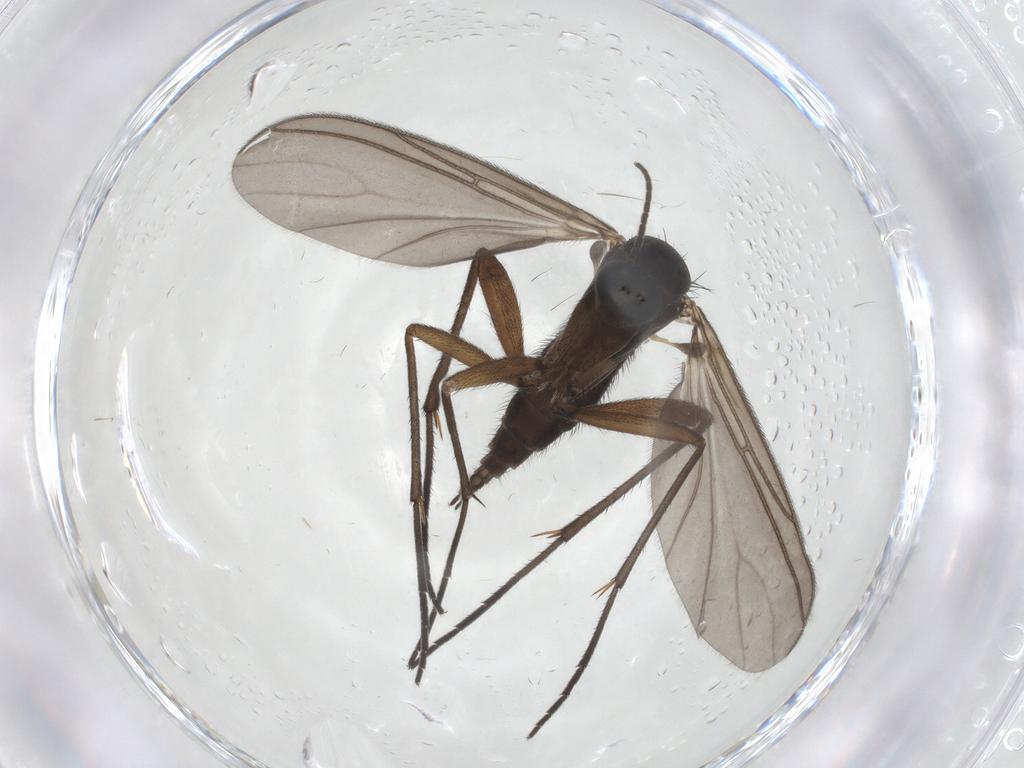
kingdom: Animalia
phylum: Arthropoda
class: Insecta
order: Diptera
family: Sciaridae
